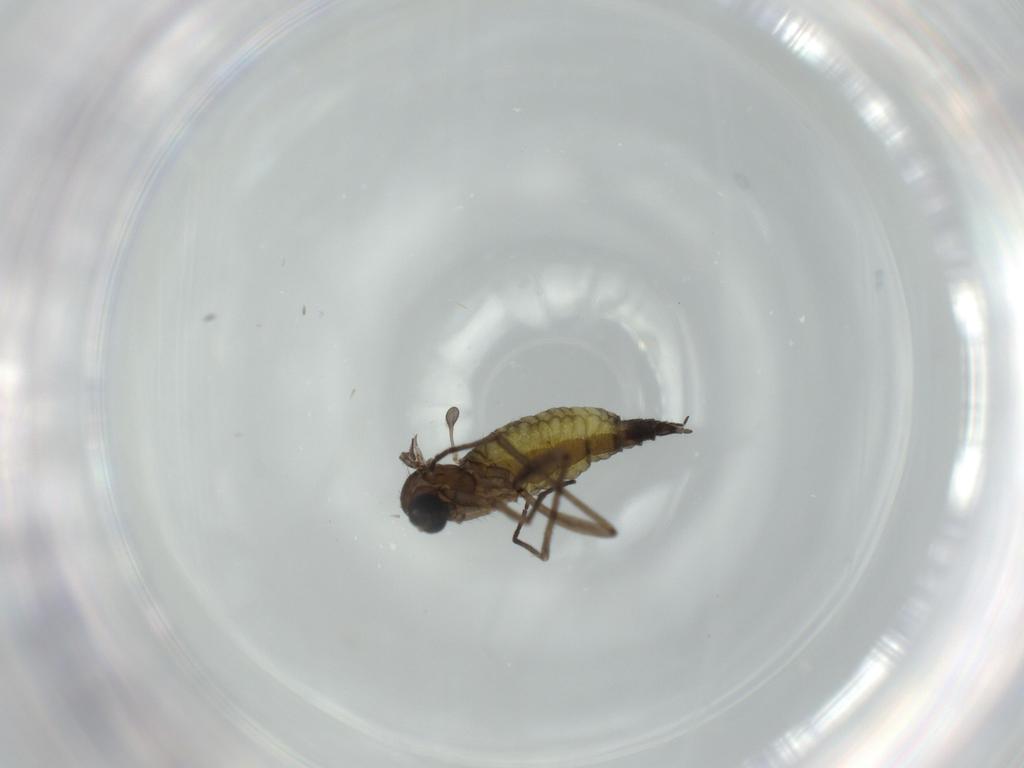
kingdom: Animalia
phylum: Arthropoda
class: Insecta
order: Diptera
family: Sciaridae
